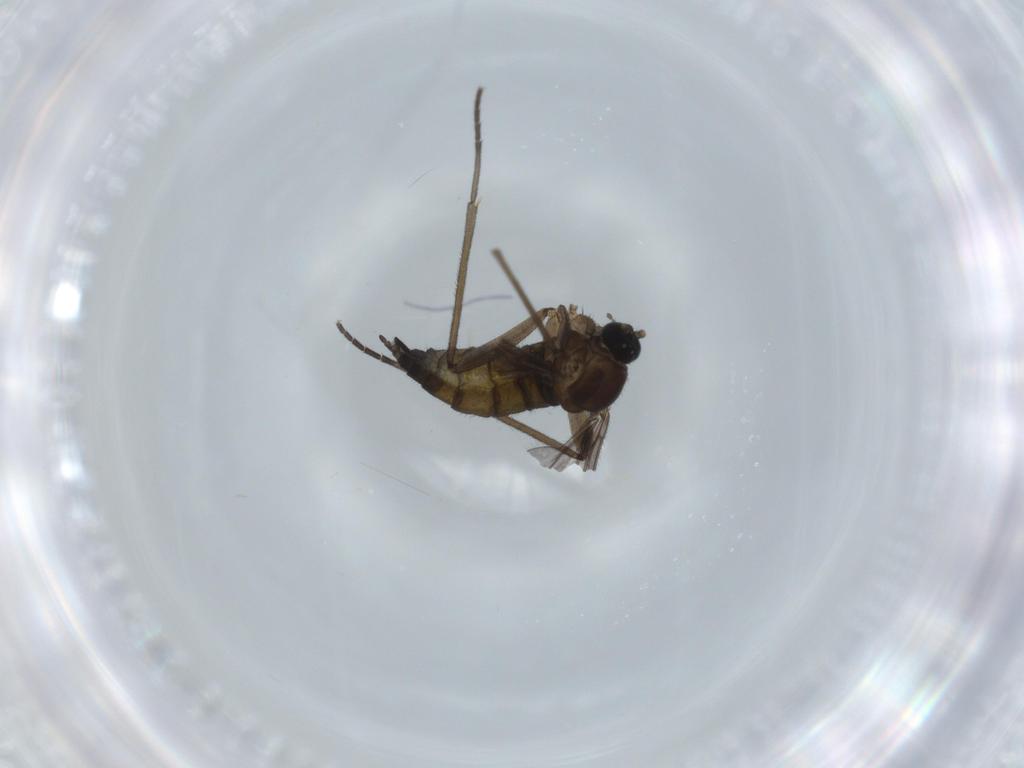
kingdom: Animalia
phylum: Arthropoda
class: Insecta
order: Diptera
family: Sciaridae
